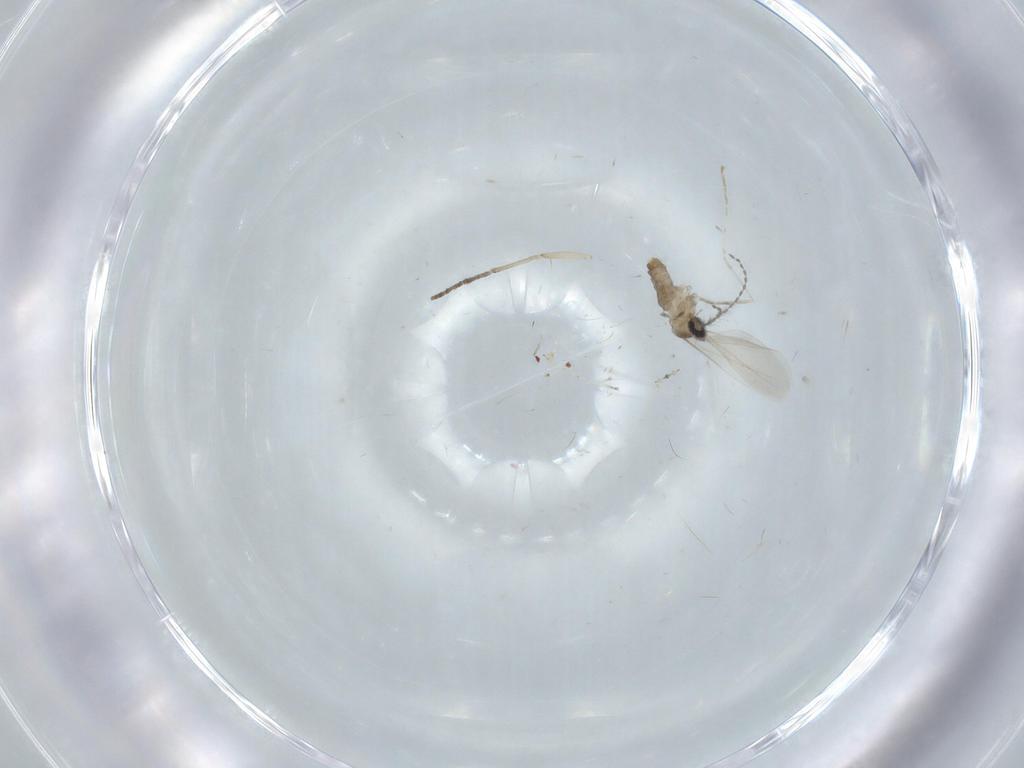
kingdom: Animalia
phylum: Arthropoda
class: Insecta
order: Diptera
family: Cecidomyiidae
